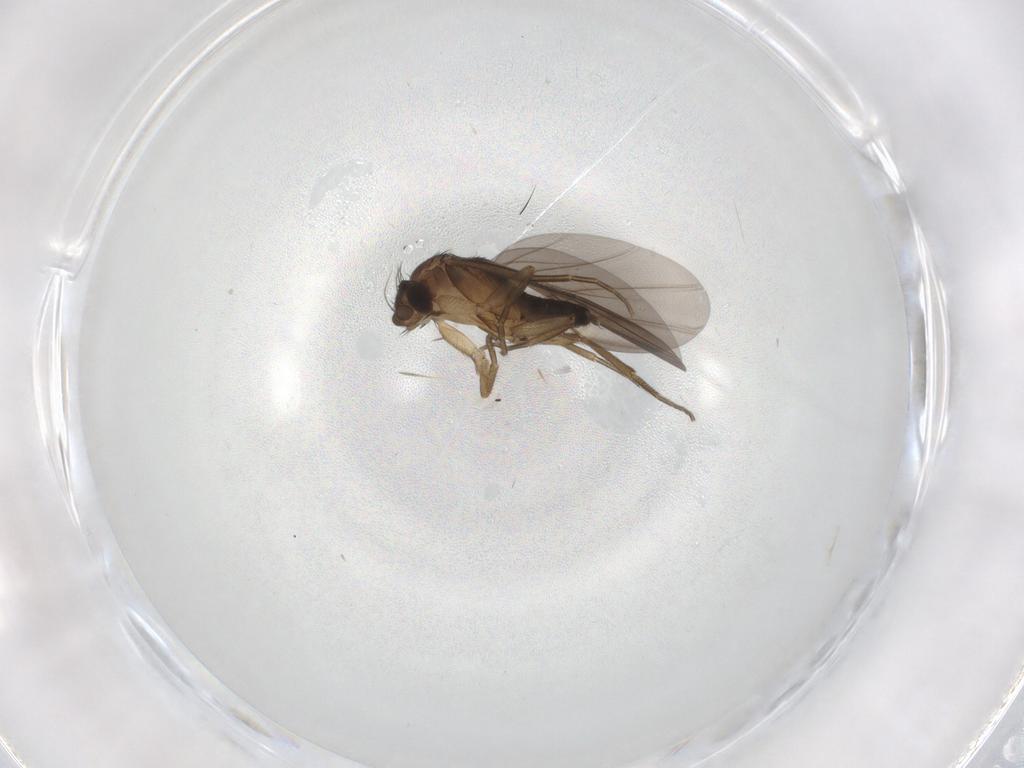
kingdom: Animalia
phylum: Arthropoda
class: Insecta
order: Diptera
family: Phoridae
